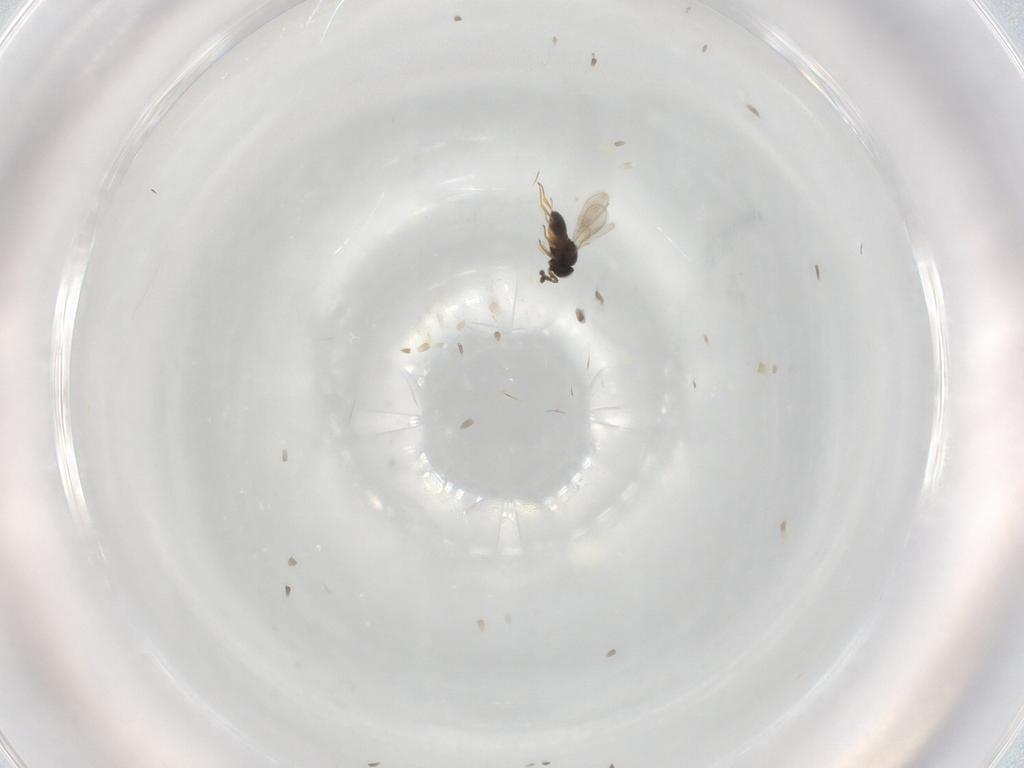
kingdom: Animalia
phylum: Arthropoda
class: Insecta
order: Hymenoptera
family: Scelionidae
